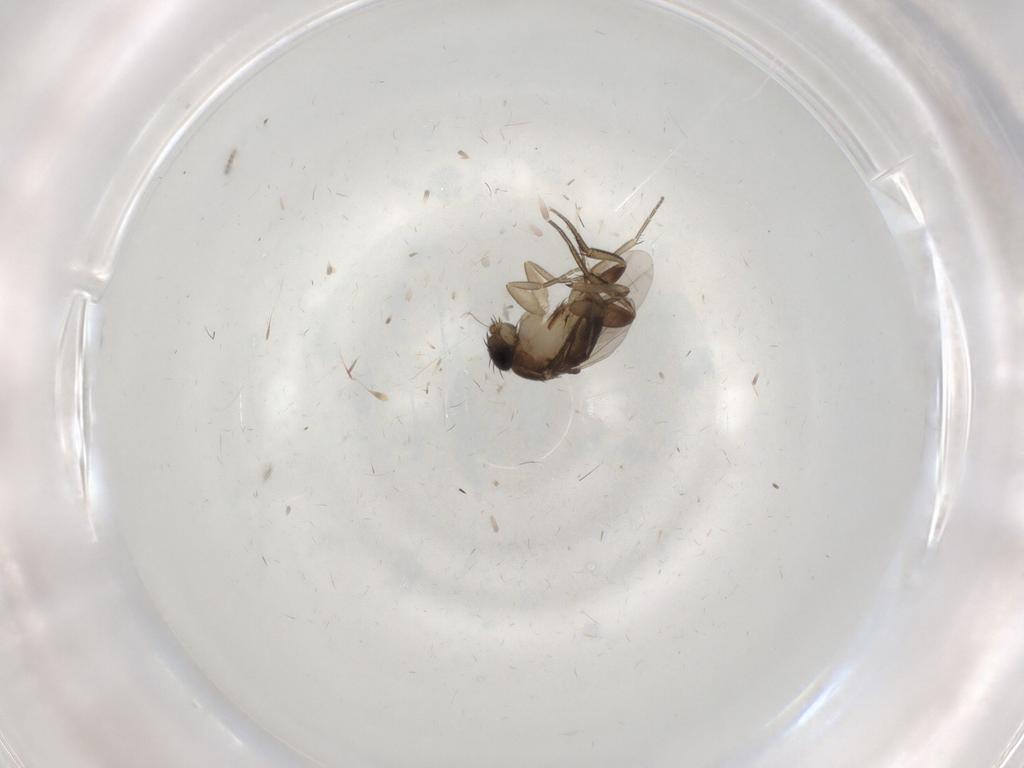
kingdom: Animalia
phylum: Arthropoda
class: Insecta
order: Diptera
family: Phoridae
